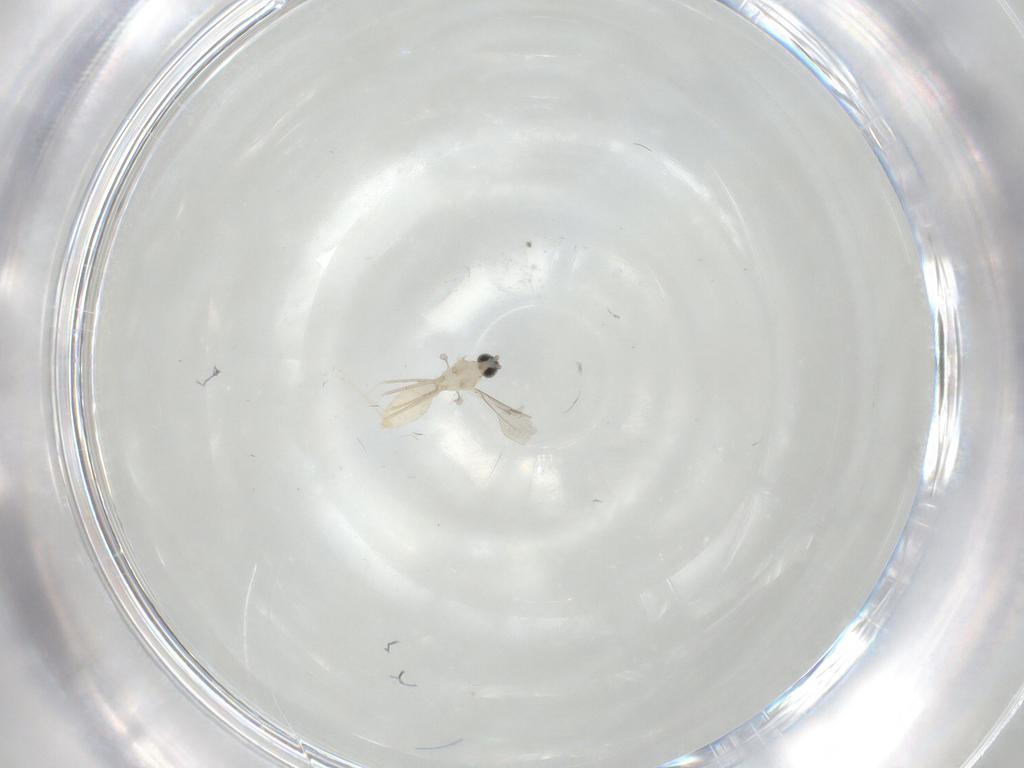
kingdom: Animalia
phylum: Arthropoda
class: Insecta
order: Diptera
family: Cecidomyiidae
